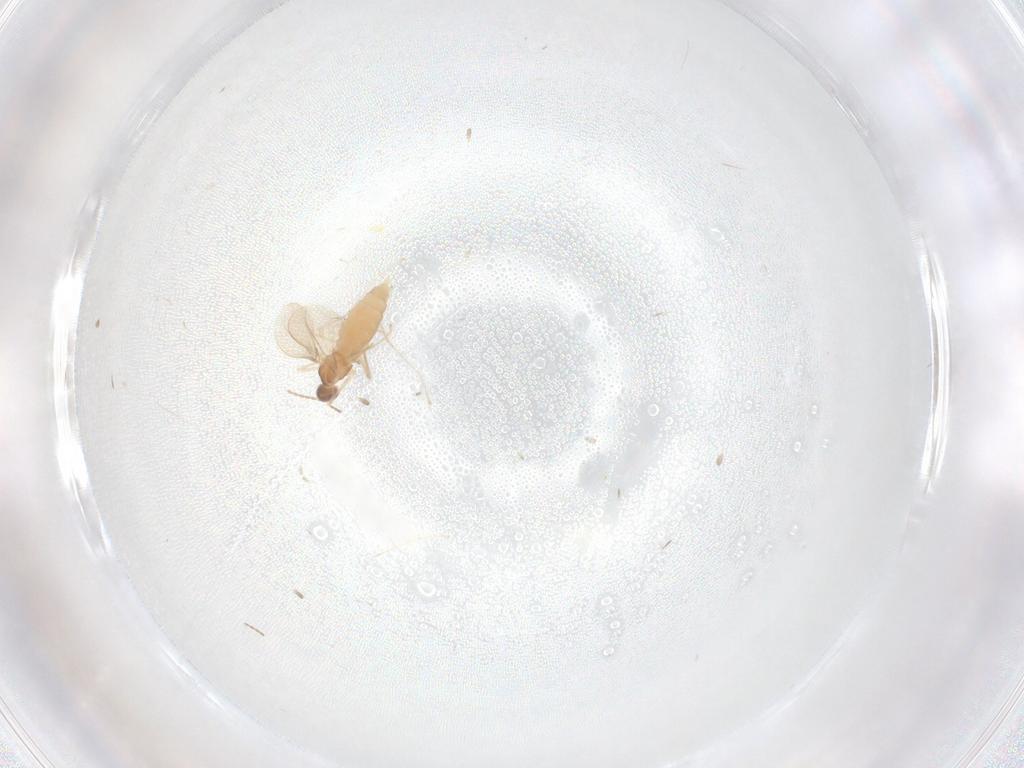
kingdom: Animalia
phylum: Arthropoda
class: Insecta
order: Diptera
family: Cecidomyiidae
